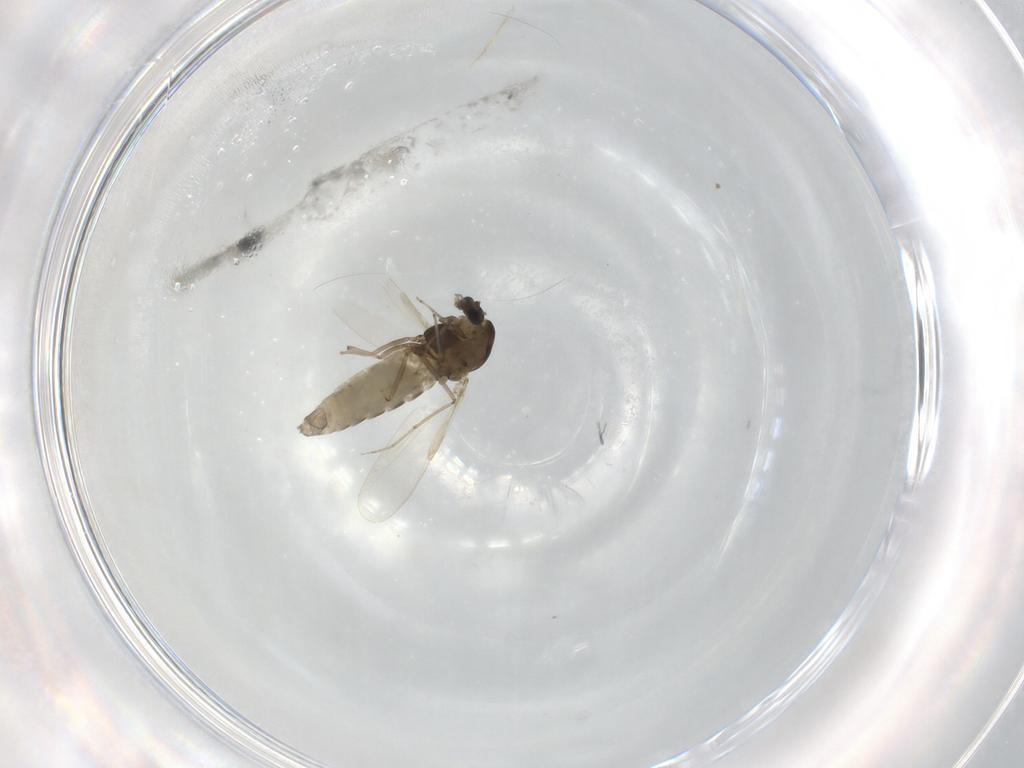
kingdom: Animalia
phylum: Arthropoda
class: Insecta
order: Diptera
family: Chironomidae
